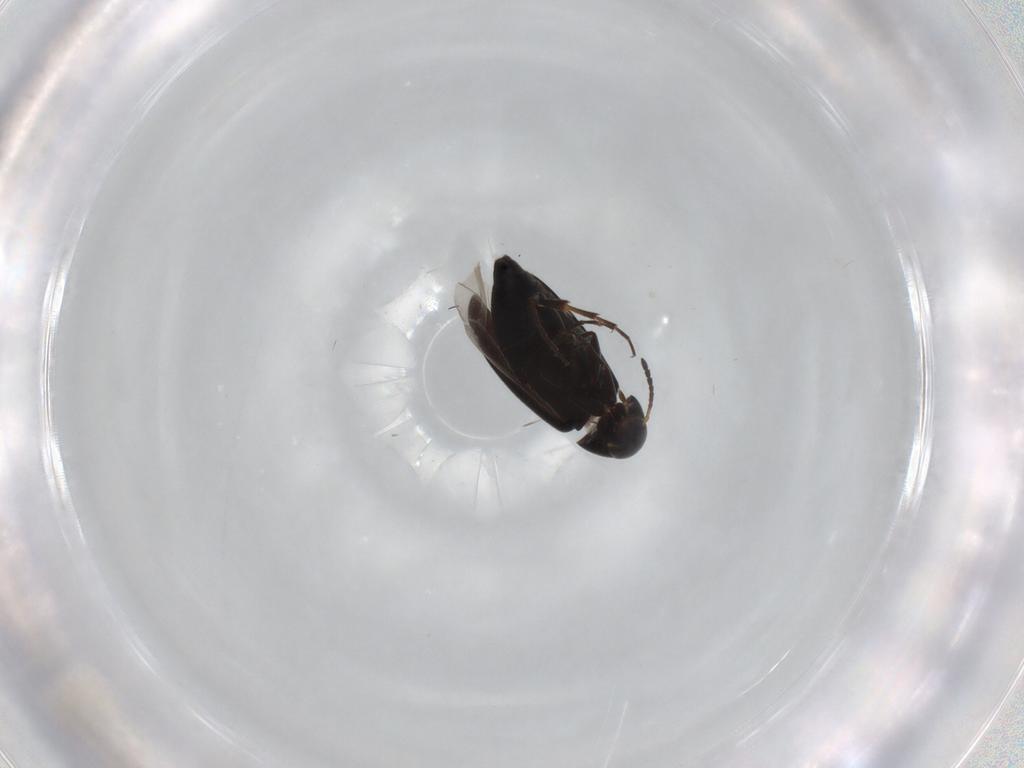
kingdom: Animalia
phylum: Arthropoda
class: Insecta
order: Coleoptera
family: Scraptiidae
